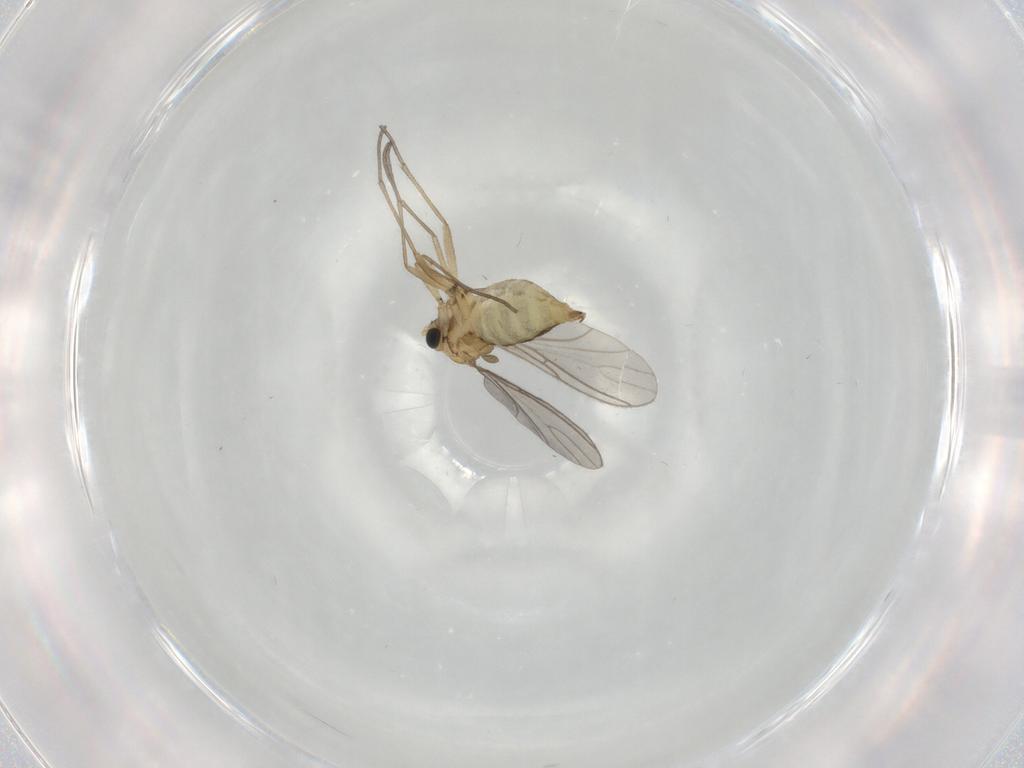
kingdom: Animalia
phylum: Arthropoda
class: Insecta
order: Diptera
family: Sciaridae
